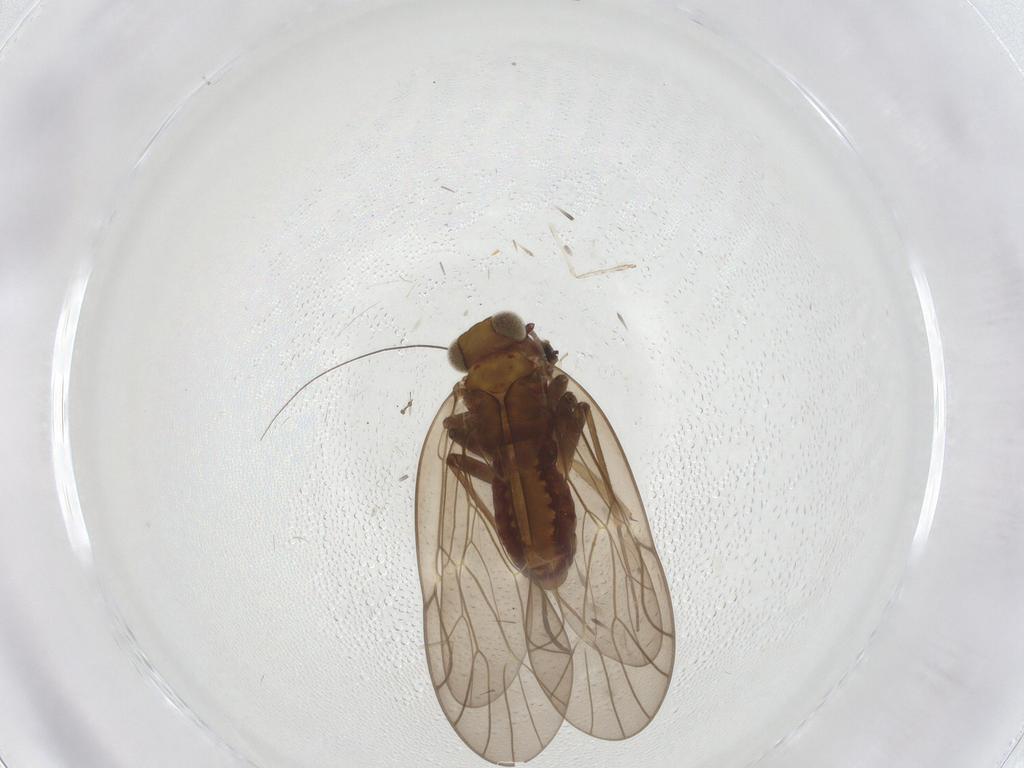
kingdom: Animalia
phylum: Arthropoda
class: Insecta
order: Psocodea
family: Philotarsidae
